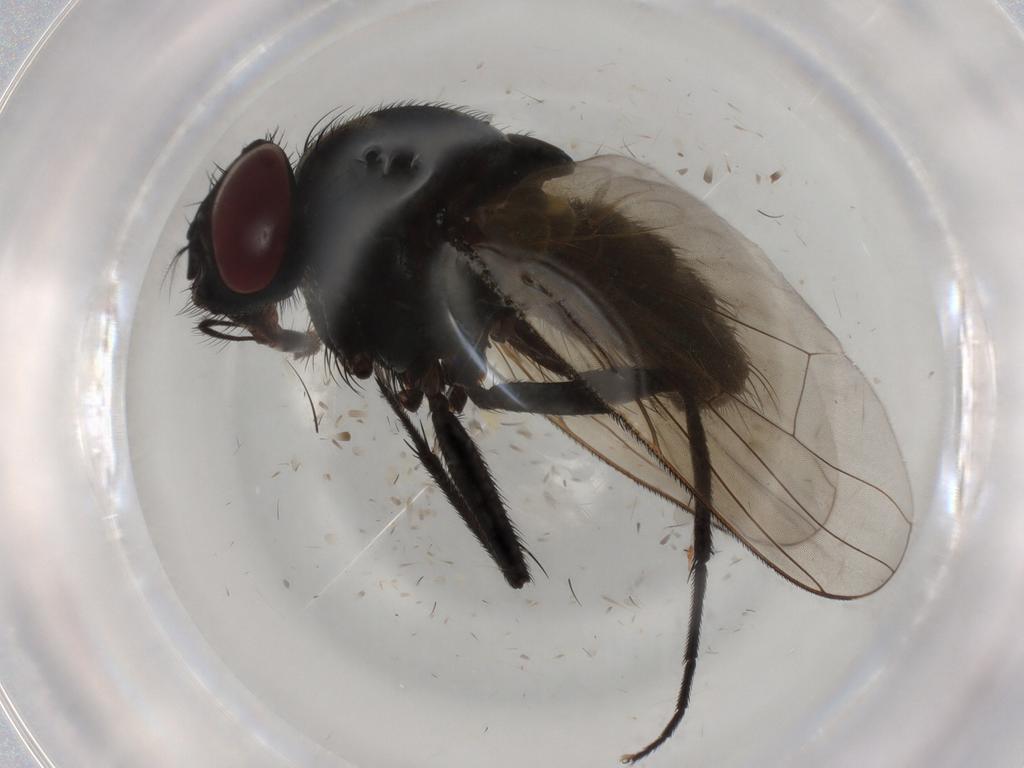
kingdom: Animalia
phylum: Arthropoda
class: Insecta
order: Diptera
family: Muscidae
